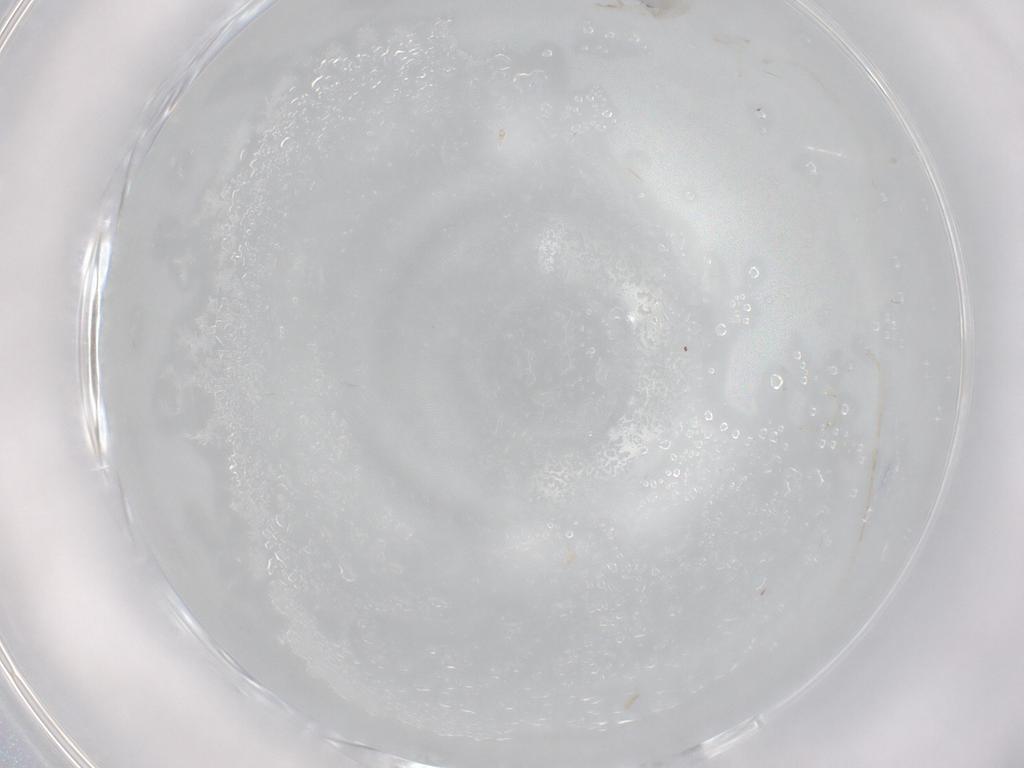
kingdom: Animalia
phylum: Arthropoda
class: Collembola
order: Entomobryomorpha
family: Entomobryidae
